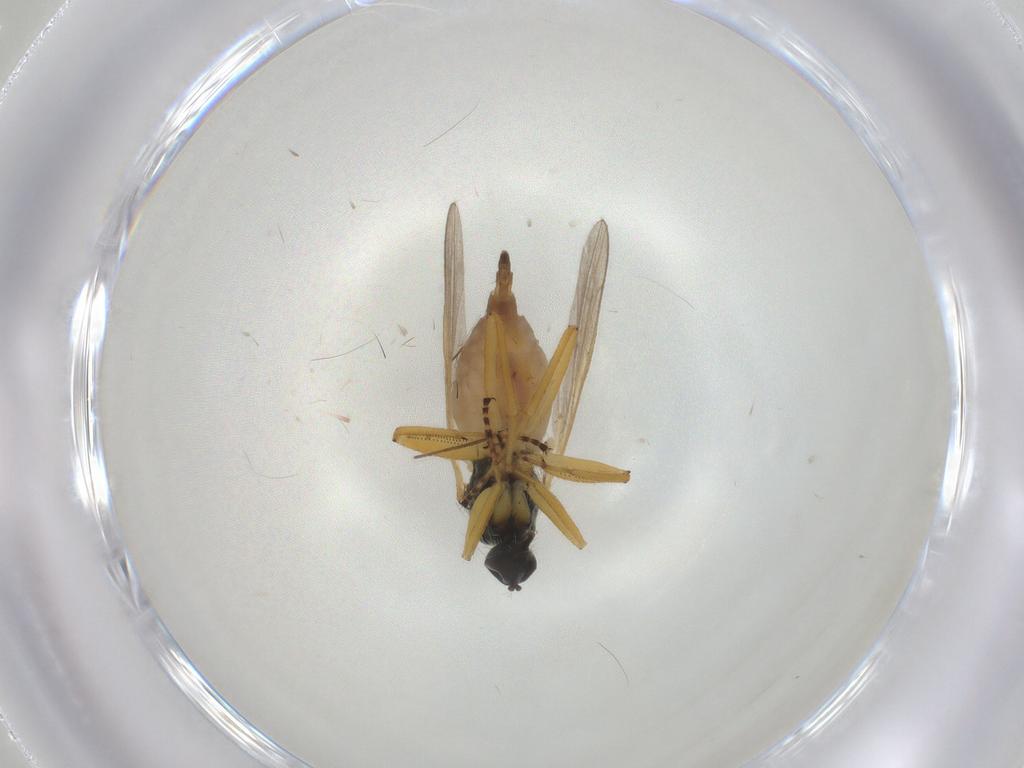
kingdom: Animalia
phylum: Arthropoda
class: Insecta
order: Diptera
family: Hybotidae
